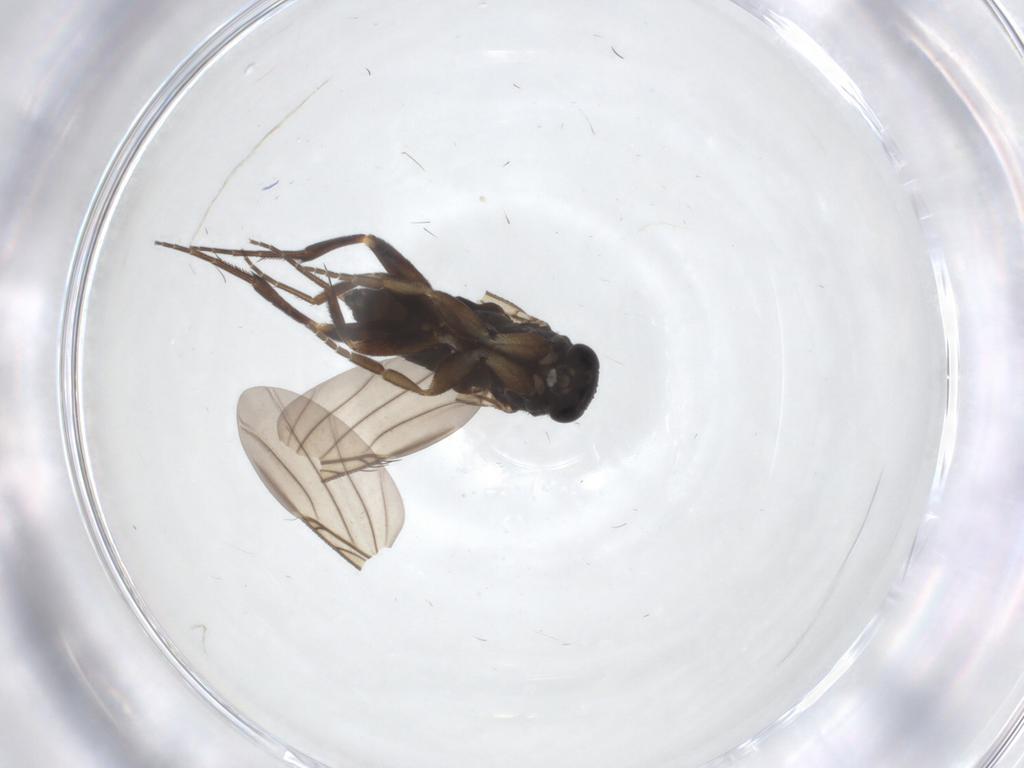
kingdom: Animalia
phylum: Arthropoda
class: Insecta
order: Diptera
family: Phoridae
